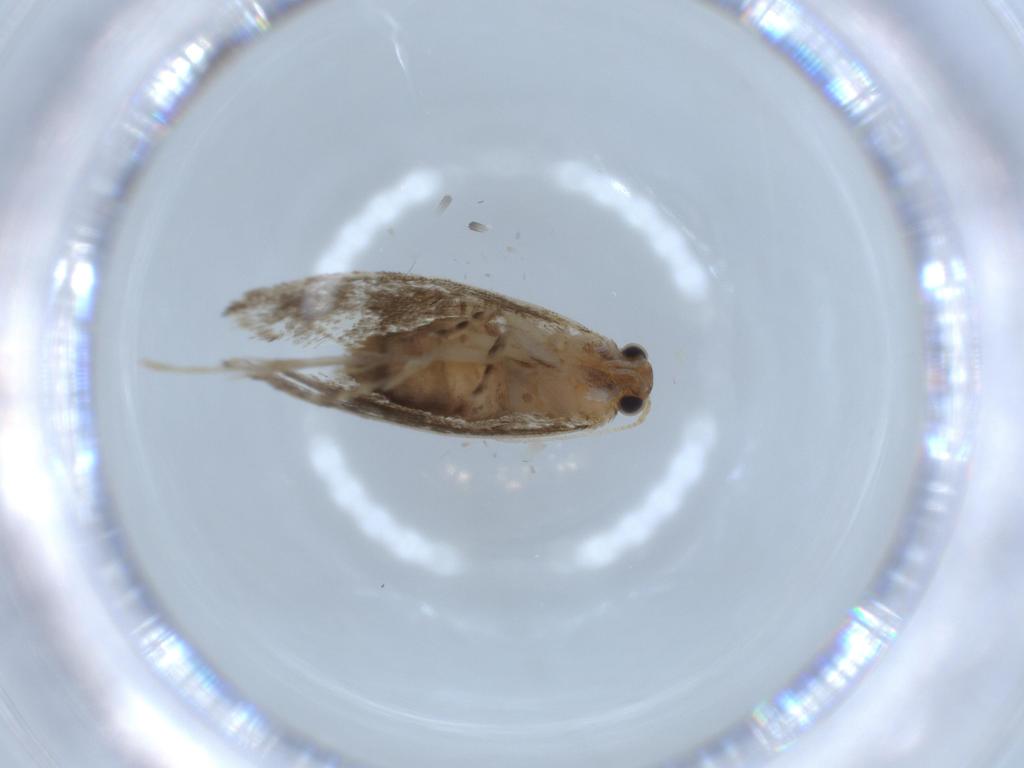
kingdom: Animalia
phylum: Arthropoda
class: Insecta
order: Lepidoptera
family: Tineidae
